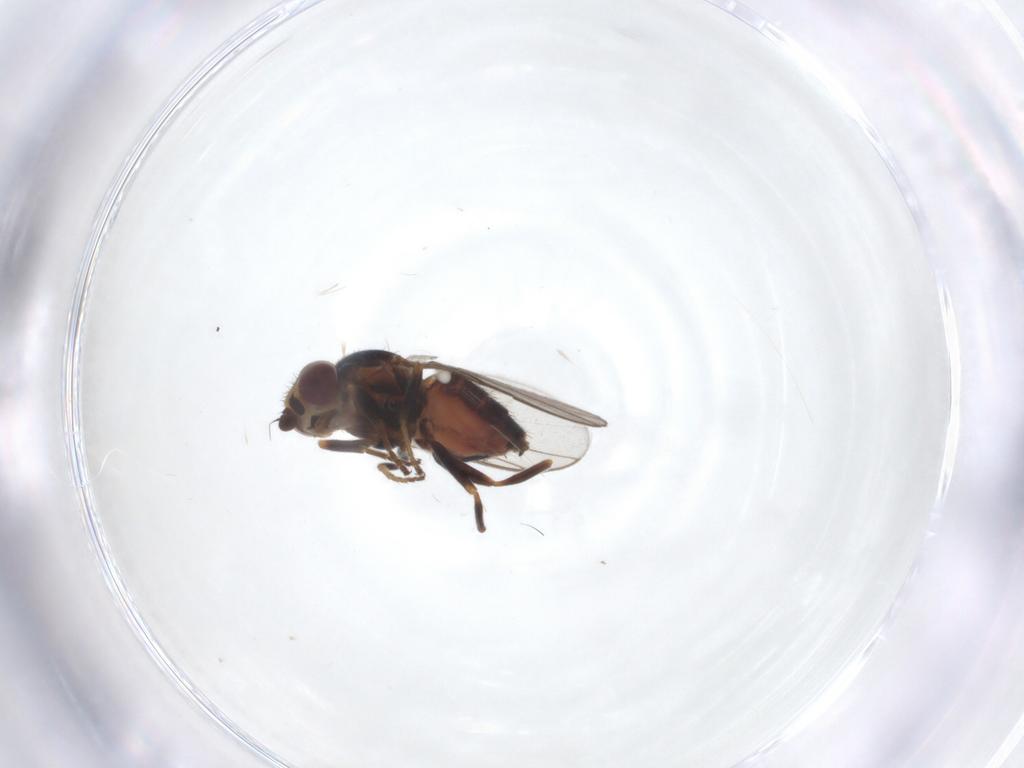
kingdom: Animalia
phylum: Arthropoda
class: Insecta
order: Diptera
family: Chloropidae
